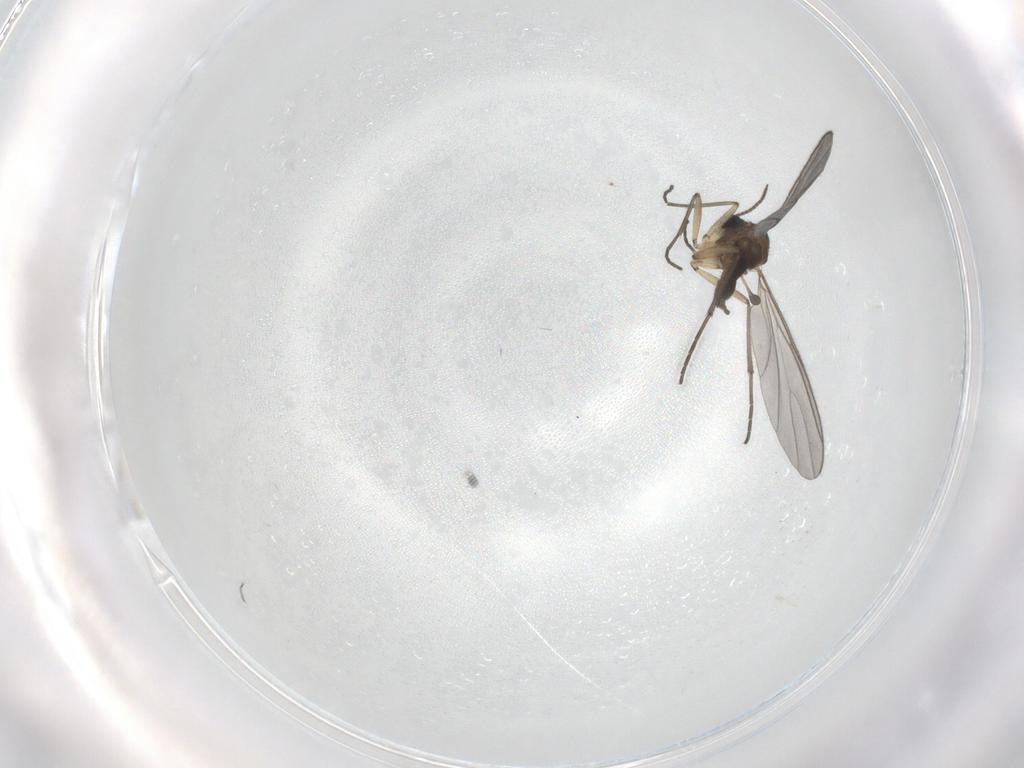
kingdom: Animalia
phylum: Arthropoda
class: Insecta
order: Diptera
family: Sciaridae
